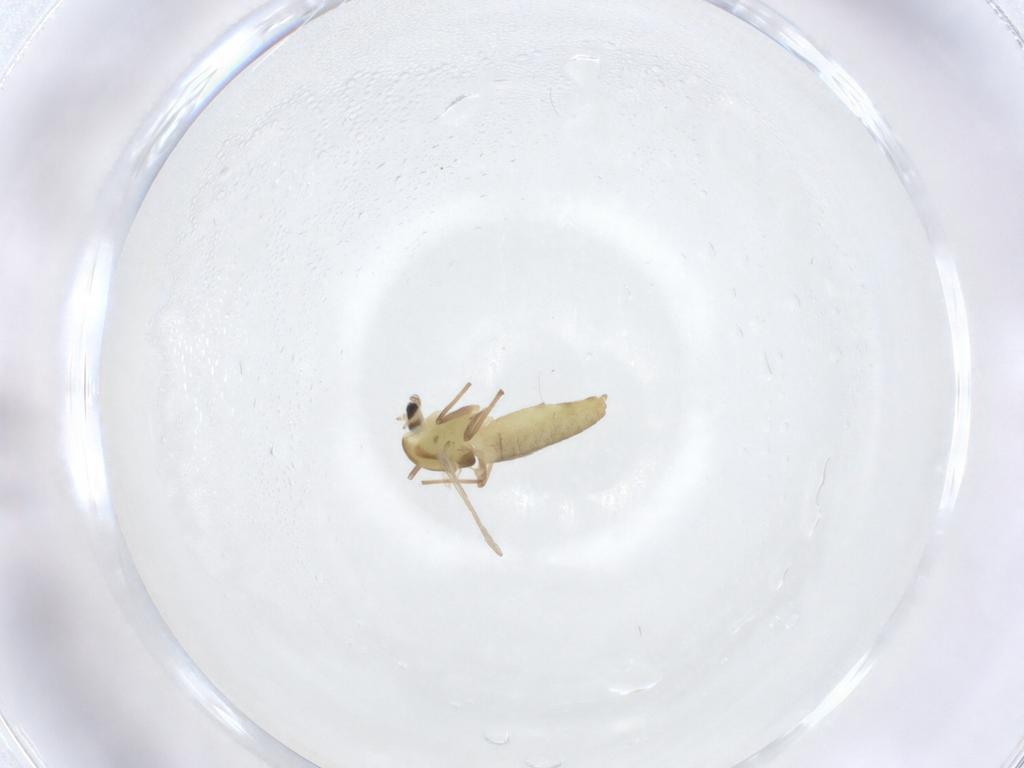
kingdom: Animalia
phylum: Arthropoda
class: Insecta
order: Diptera
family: Chironomidae
